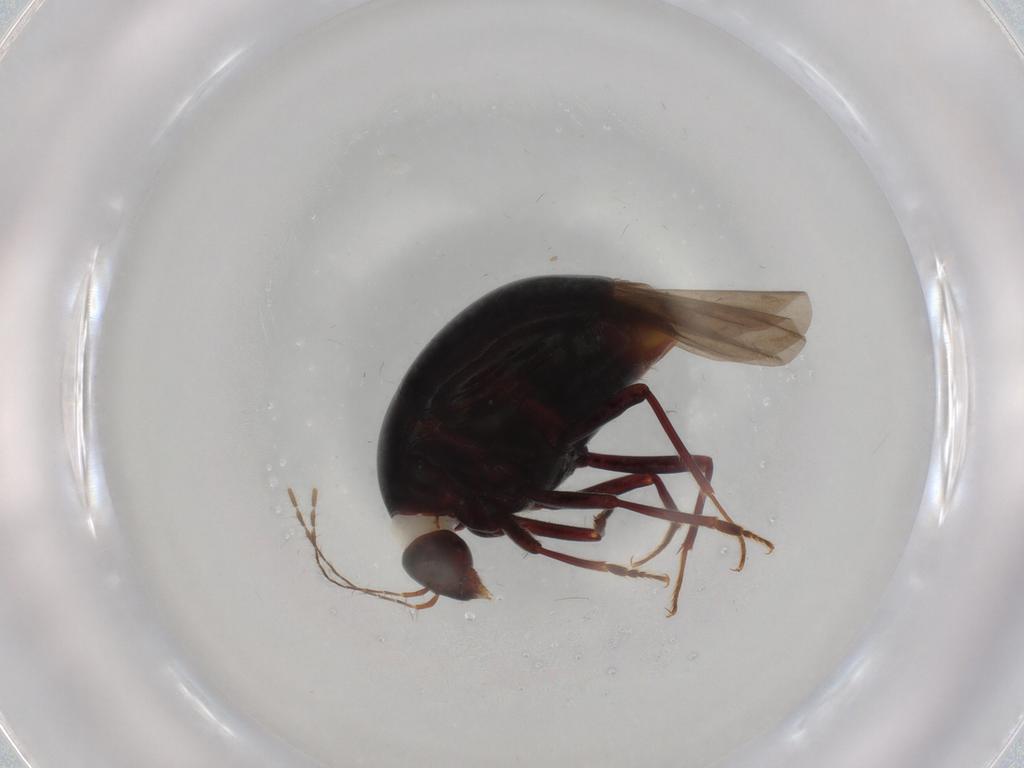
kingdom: Animalia
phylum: Arthropoda
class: Insecta
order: Coleoptera
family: Staphylinidae
